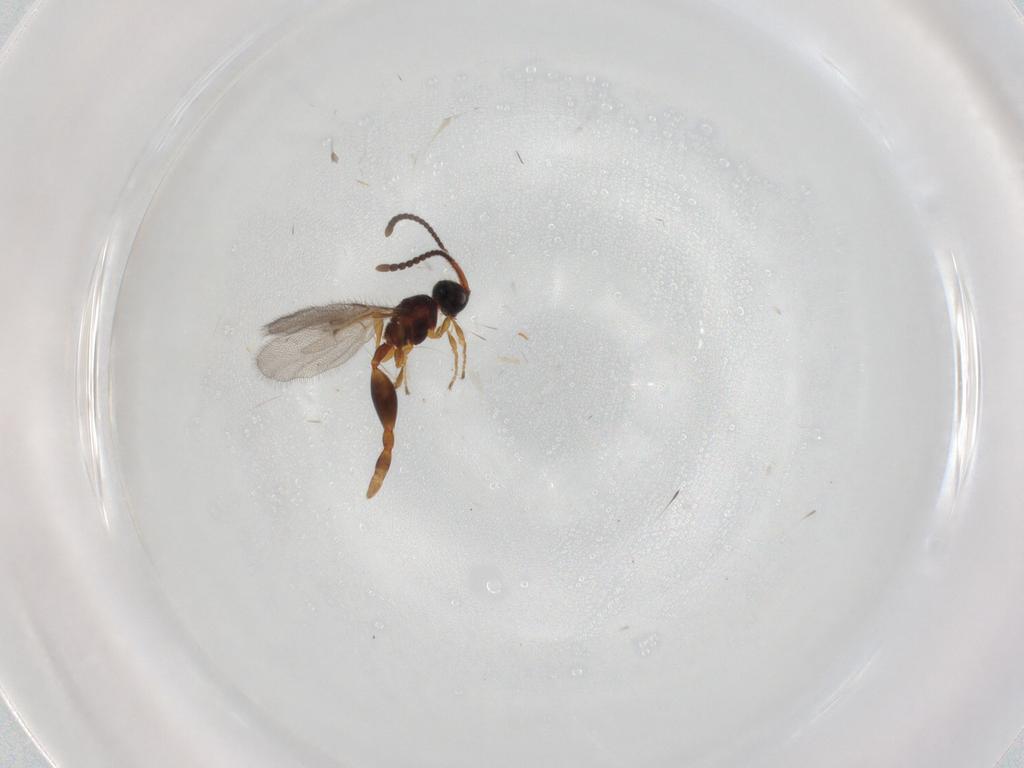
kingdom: Animalia
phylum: Arthropoda
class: Insecta
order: Hymenoptera
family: Diapriidae
